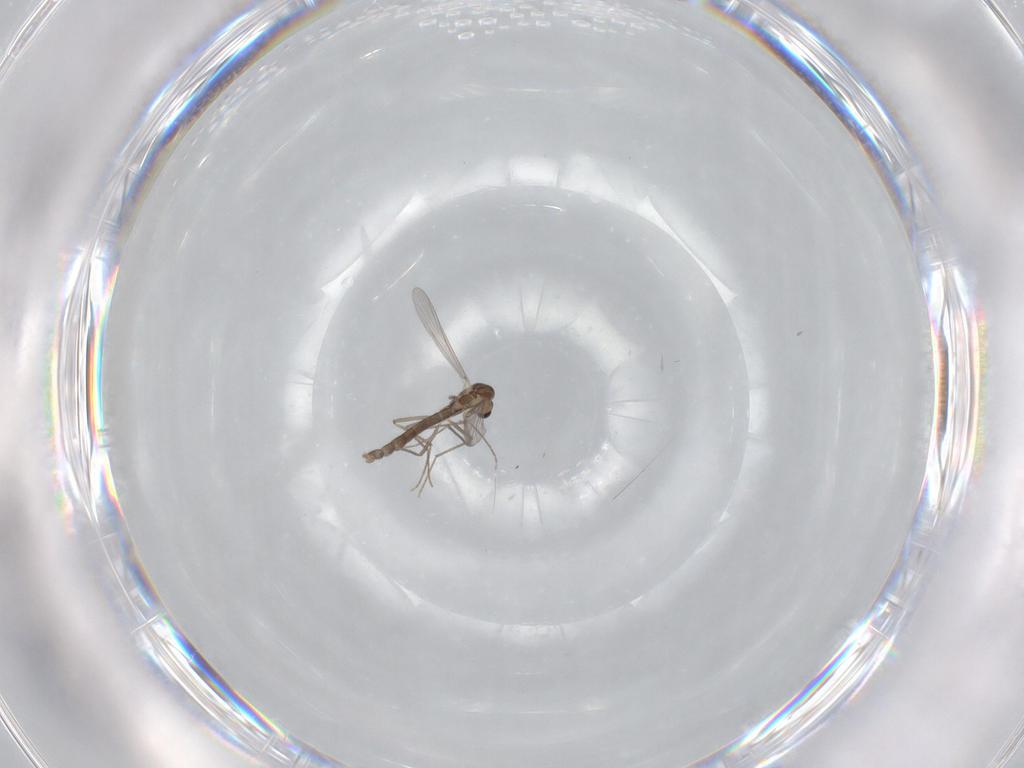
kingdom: Animalia
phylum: Arthropoda
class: Insecta
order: Diptera
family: Chironomidae
